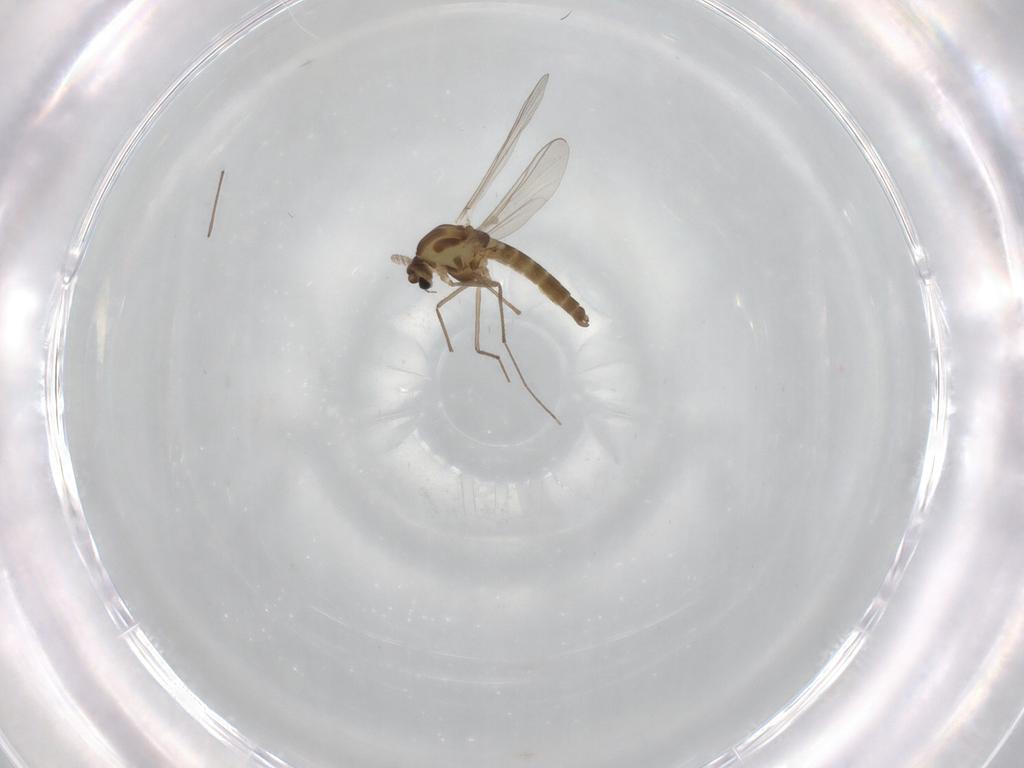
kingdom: Animalia
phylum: Arthropoda
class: Insecta
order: Diptera
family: Chironomidae
